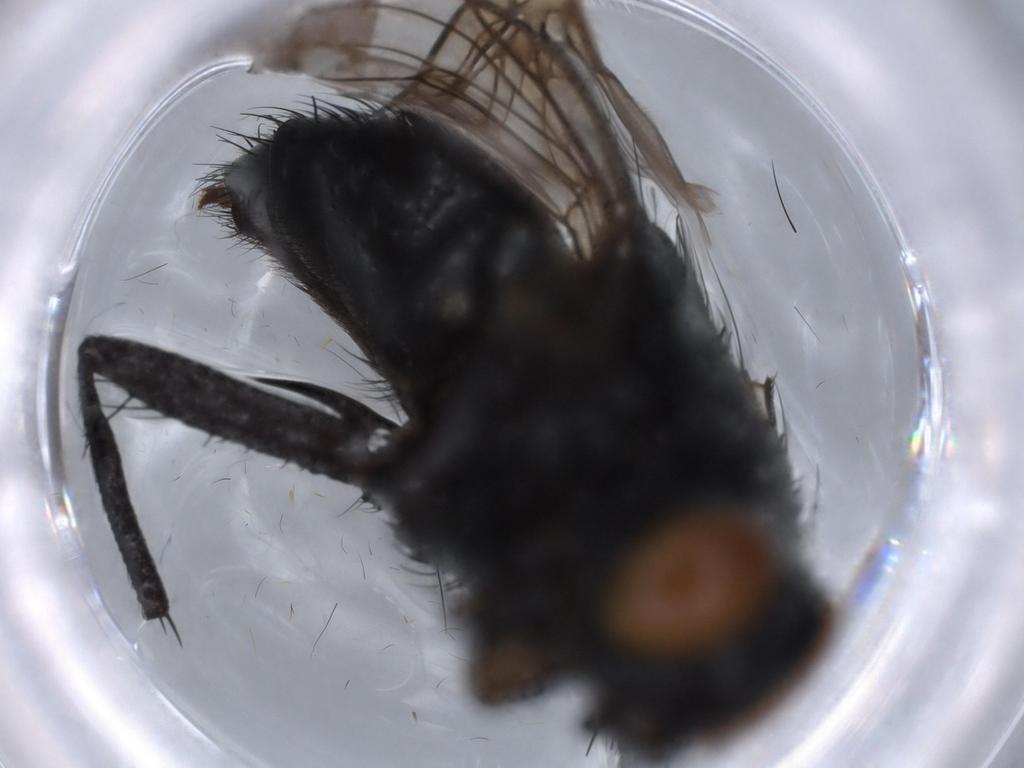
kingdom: Animalia
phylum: Arthropoda
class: Insecta
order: Diptera
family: Muscidae
